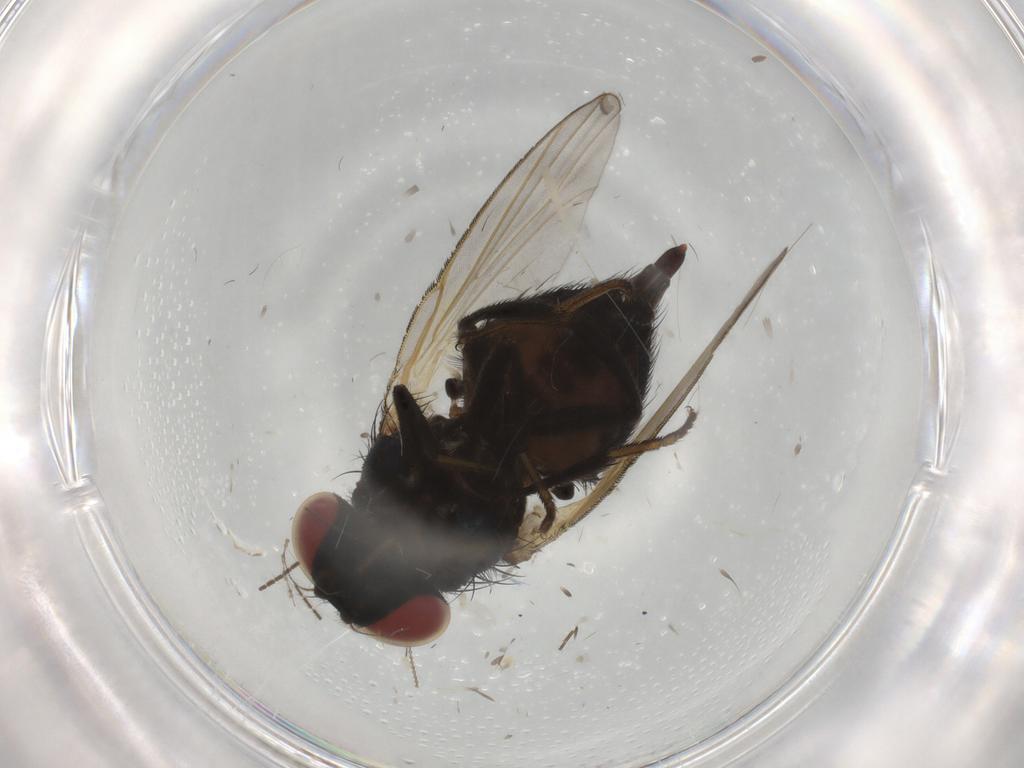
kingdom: Animalia
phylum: Arthropoda
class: Insecta
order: Diptera
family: Phoridae
